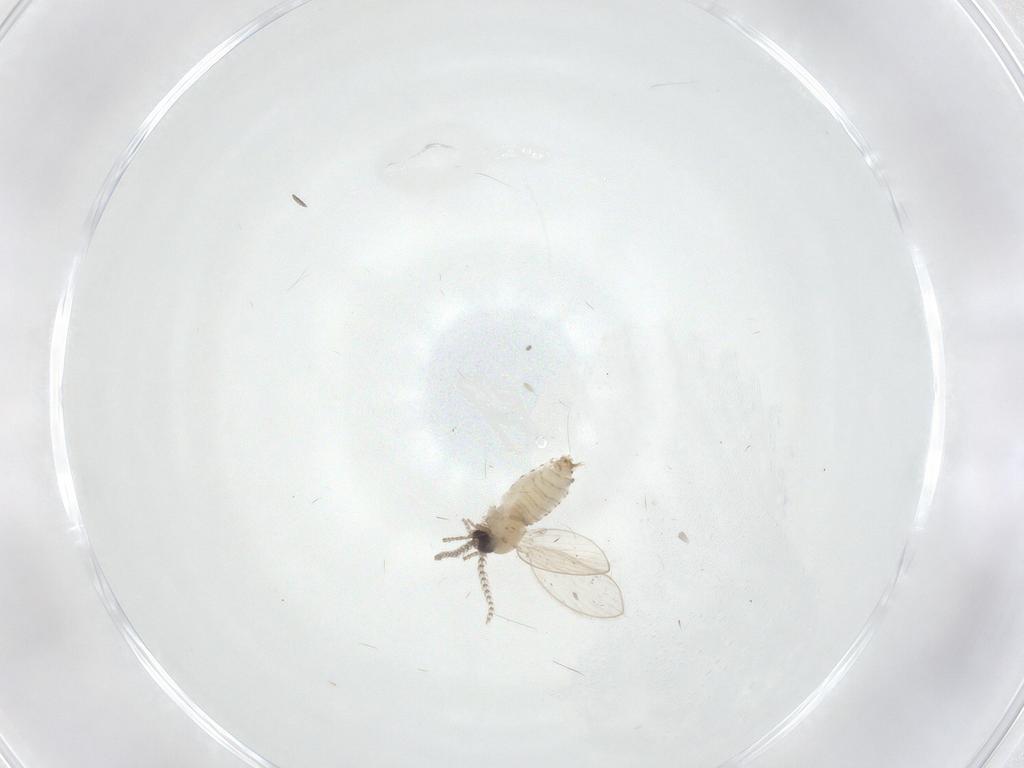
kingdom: Animalia
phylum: Arthropoda
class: Insecta
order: Diptera
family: Psychodidae
